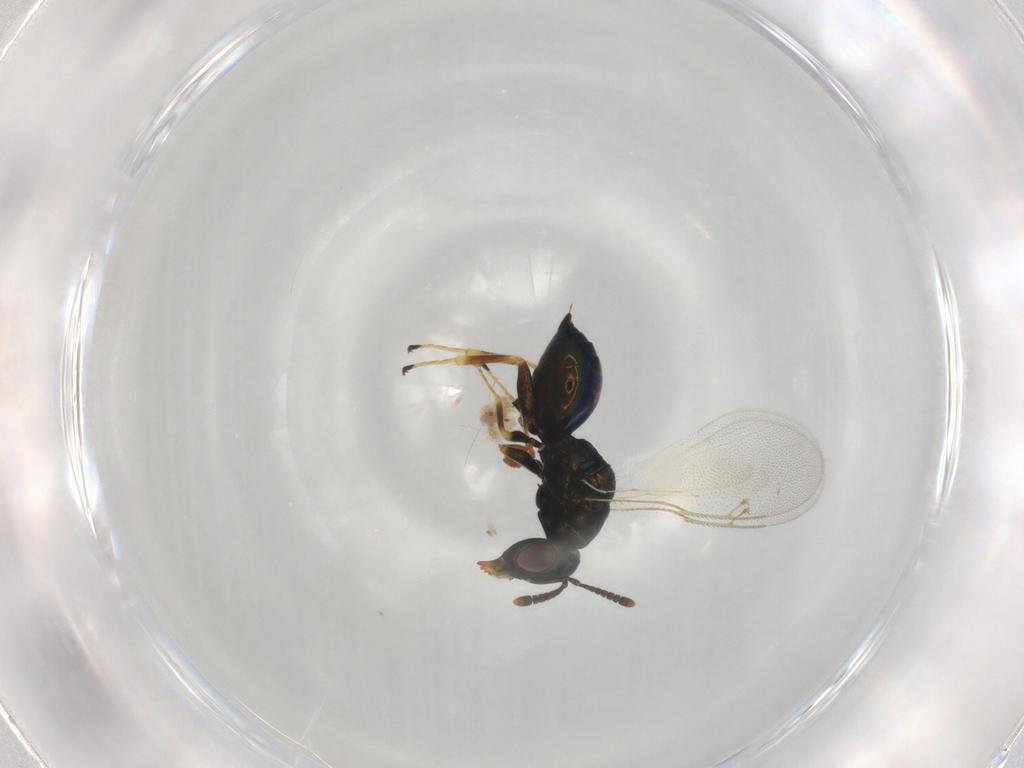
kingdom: Animalia
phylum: Arthropoda
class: Insecta
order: Hymenoptera
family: Pteromalidae
